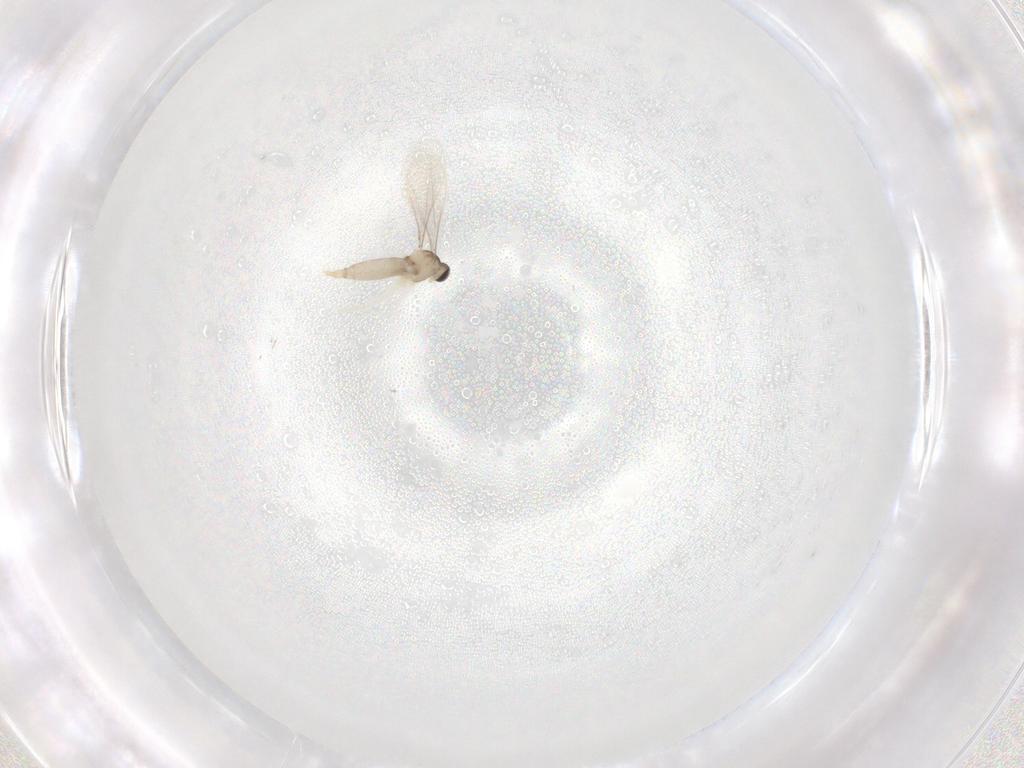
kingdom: Animalia
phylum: Arthropoda
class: Insecta
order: Diptera
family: Cecidomyiidae
